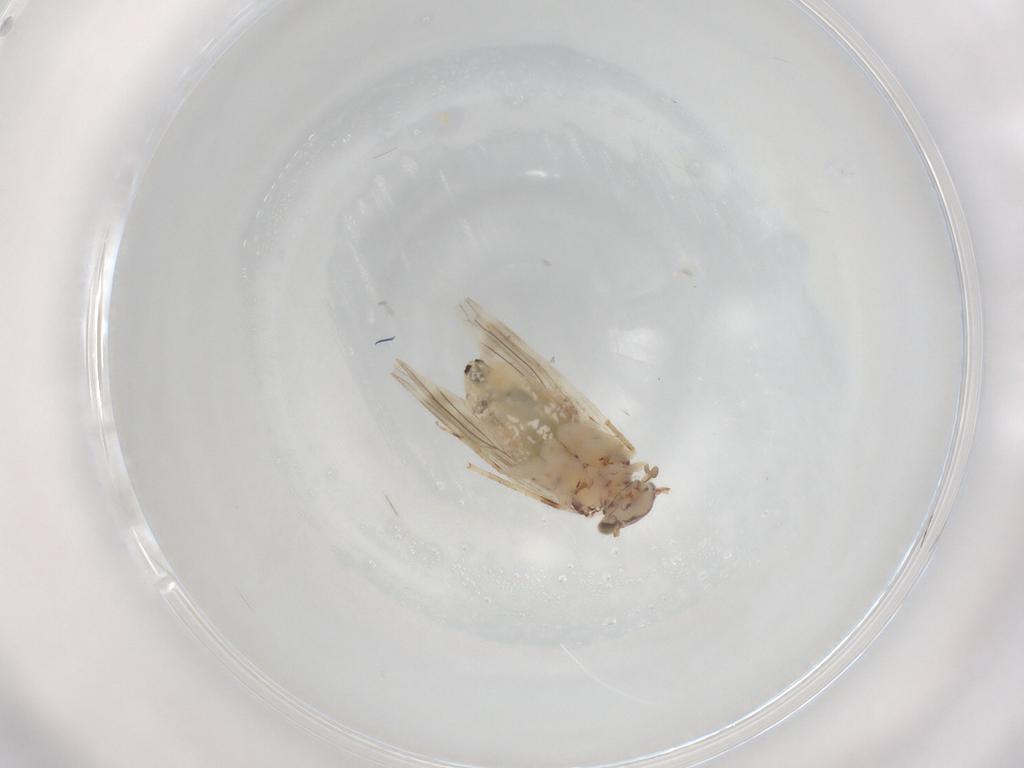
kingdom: Animalia
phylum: Arthropoda
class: Insecta
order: Psocodea
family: Lepidopsocidae
